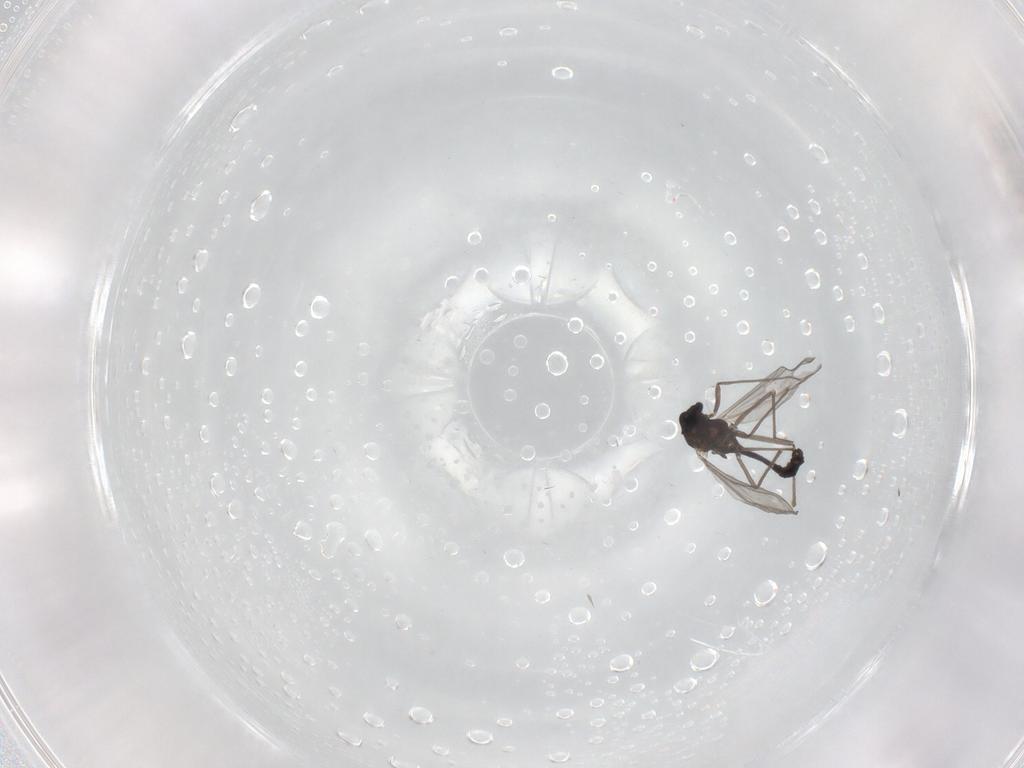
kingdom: Animalia
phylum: Arthropoda
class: Insecta
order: Diptera
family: Chironomidae
